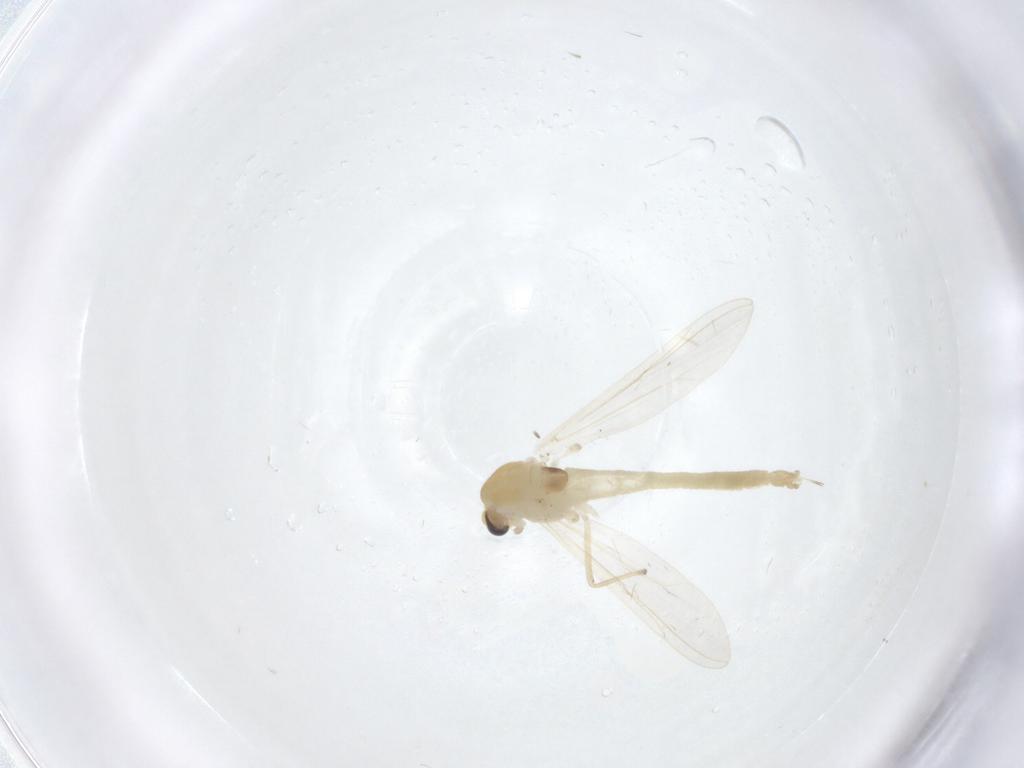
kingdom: Animalia
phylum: Arthropoda
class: Insecta
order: Diptera
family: Chironomidae
